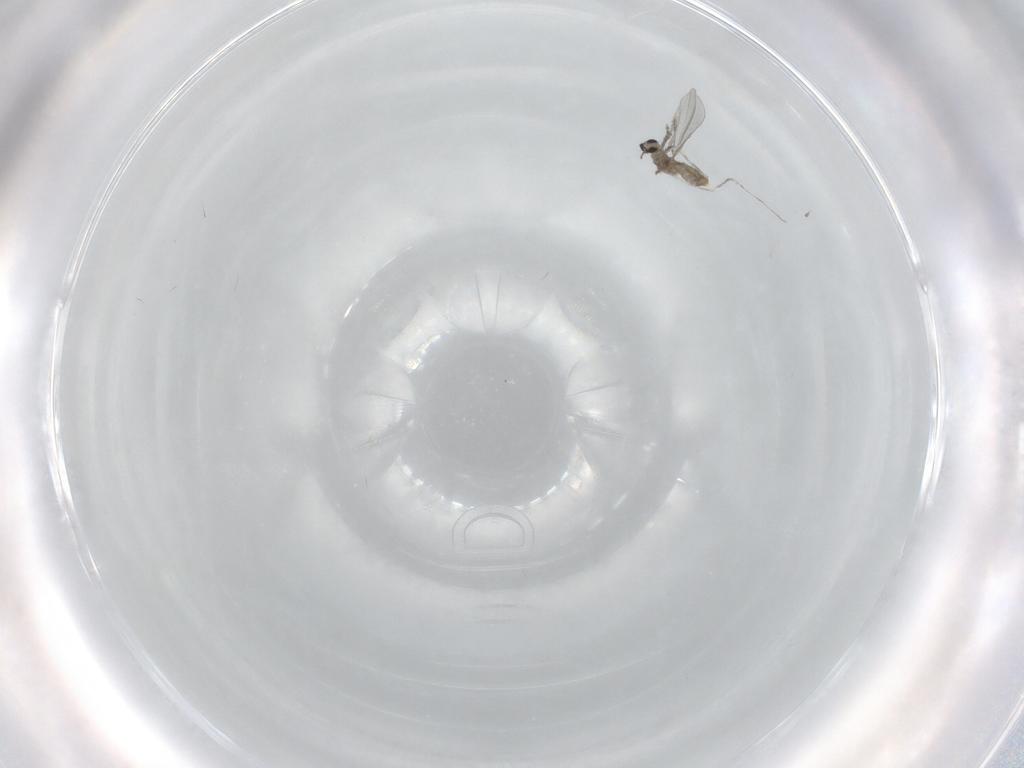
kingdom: Animalia
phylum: Arthropoda
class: Insecta
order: Diptera
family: Cecidomyiidae
